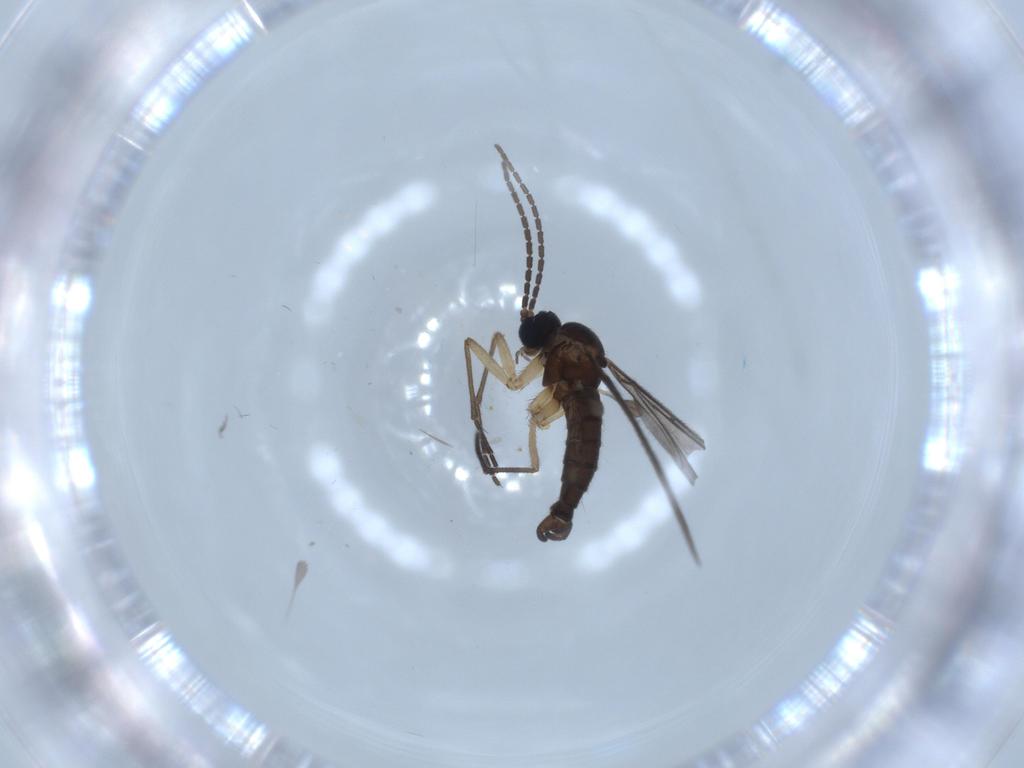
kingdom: Animalia
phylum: Arthropoda
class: Insecta
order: Diptera
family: Sciaridae
